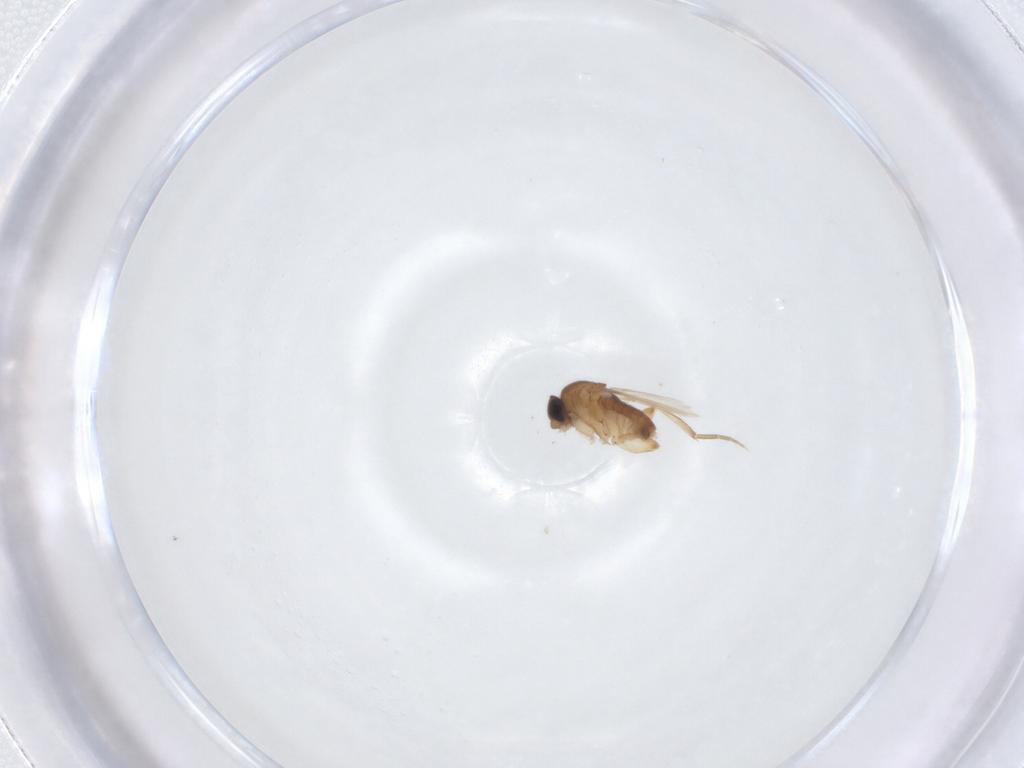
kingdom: Animalia
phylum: Arthropoda
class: Insecta
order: Diptera
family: Phoridae
